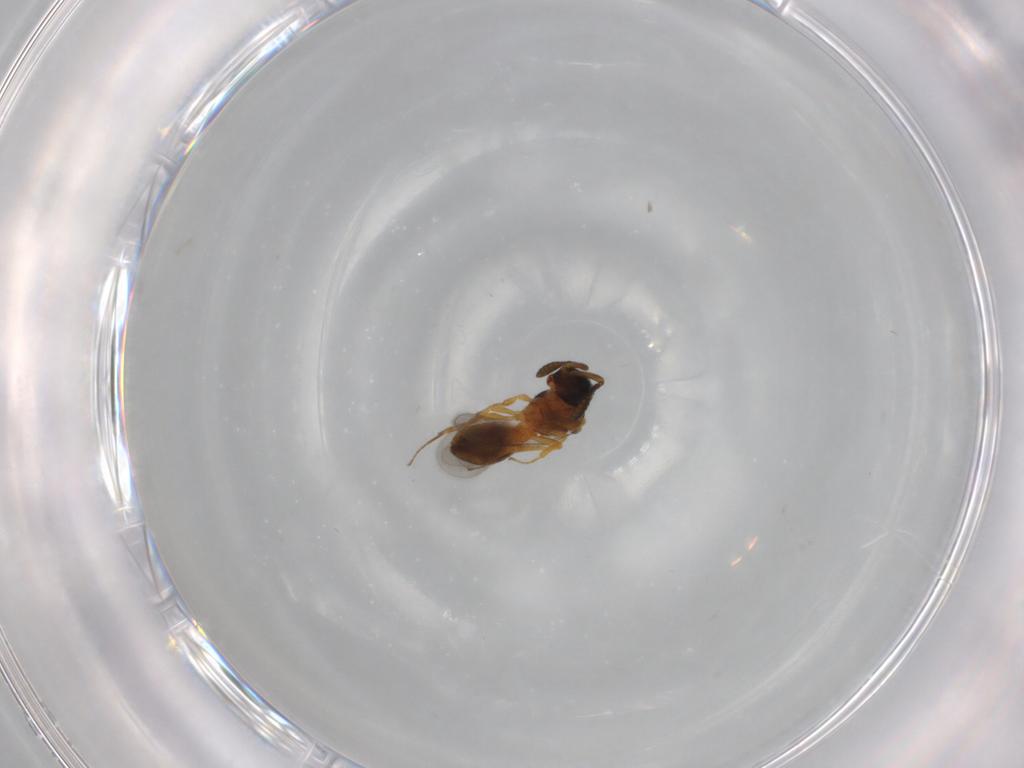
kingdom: Animalia
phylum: Arthropoda
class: Insecta
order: Hymenoptera
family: Scelionidae
